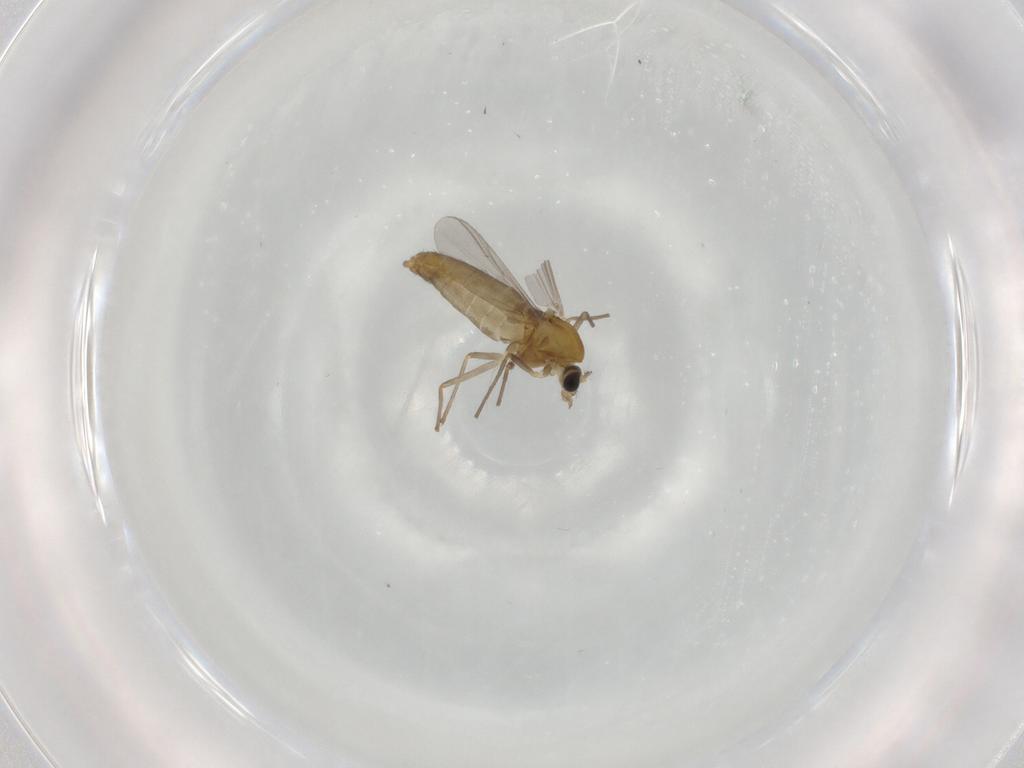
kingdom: Animalia
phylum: Arthropoda
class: Insecta
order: Diptera
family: Chironomidae
